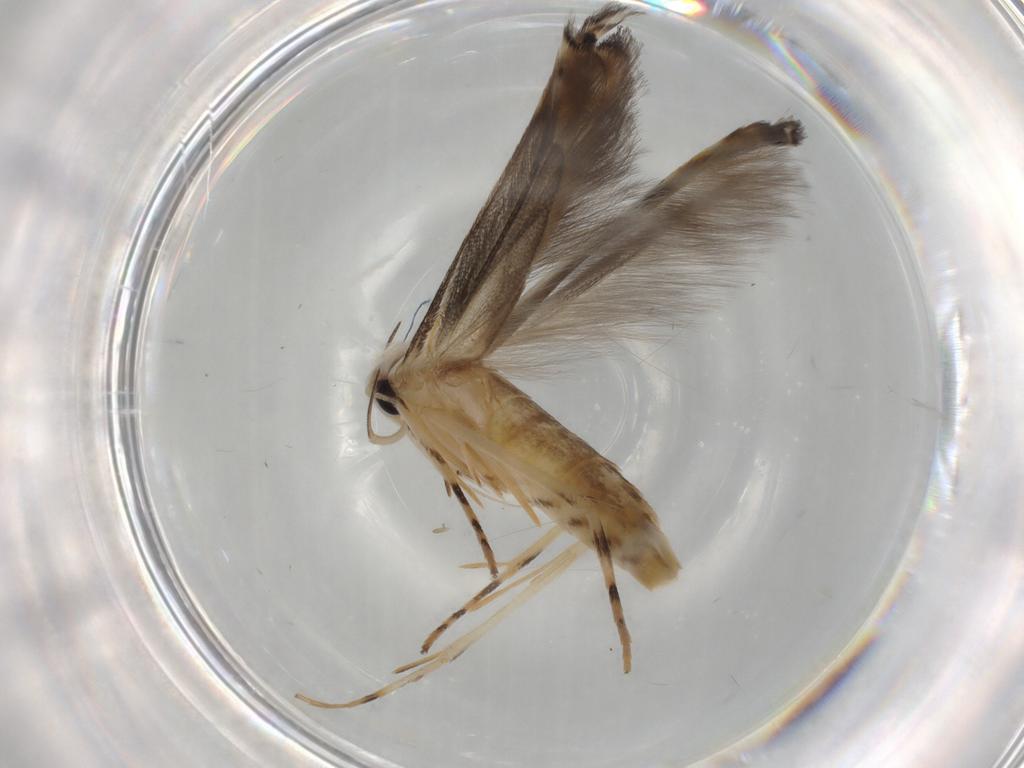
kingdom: Animalia
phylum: Arthropoda
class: Insecta
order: Lepidoptera
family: Gelechiidae
